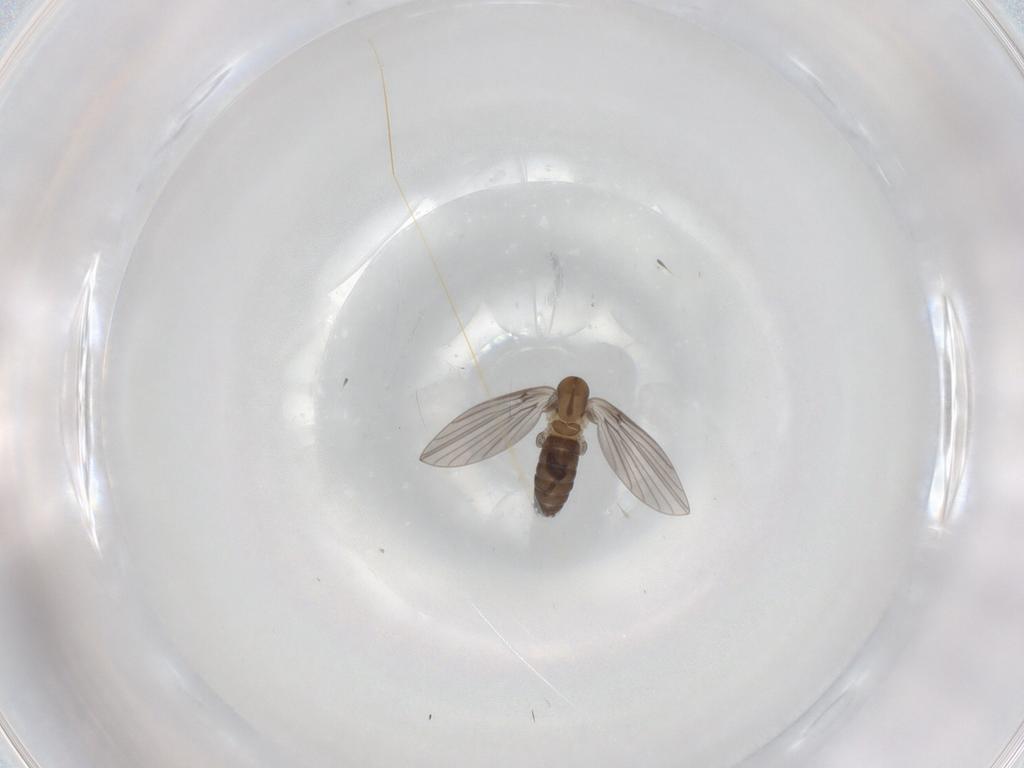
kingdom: Animalia
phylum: Arthropoda
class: Insecta
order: Diptera
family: Psychodidae
